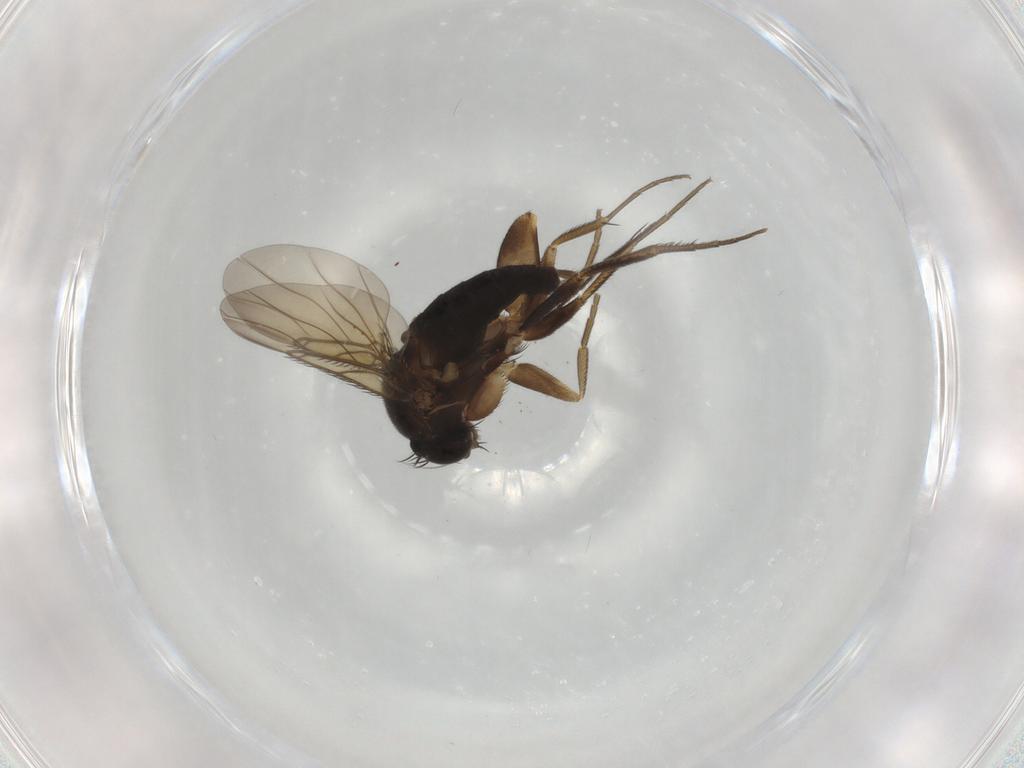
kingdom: Animalia
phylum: Arthropoda
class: Insecta
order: Diptera
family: Phoridae
